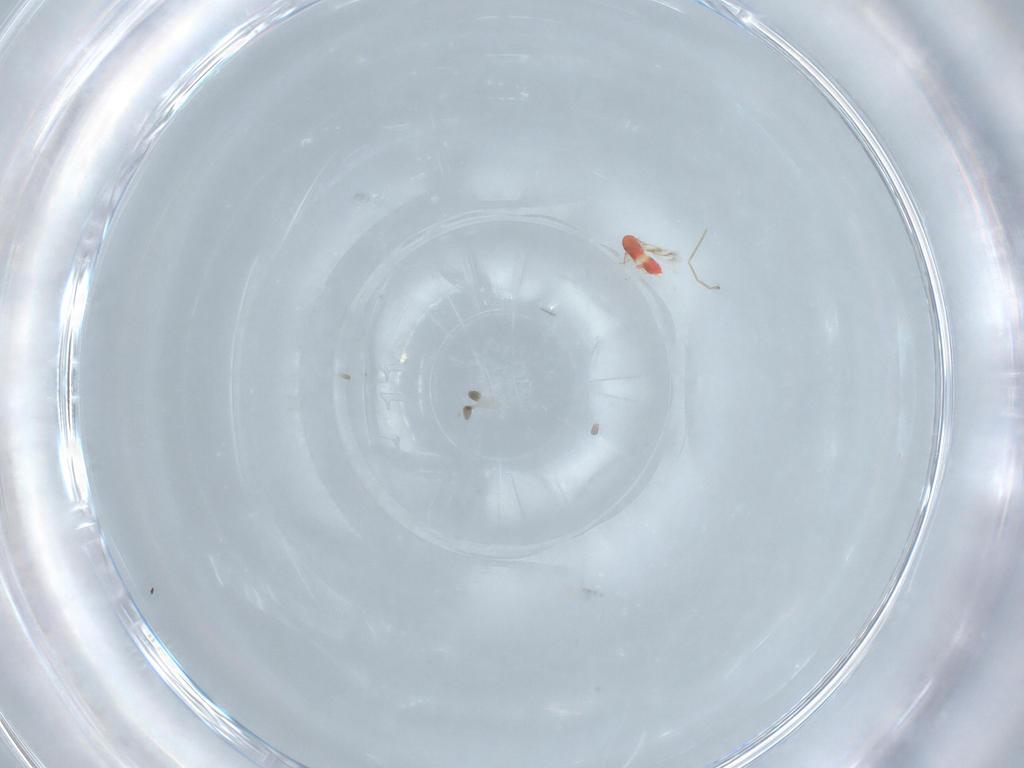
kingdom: Animalia
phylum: Arthropoda
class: Insecta
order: Hymenoptera
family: Trichogrammatidae
